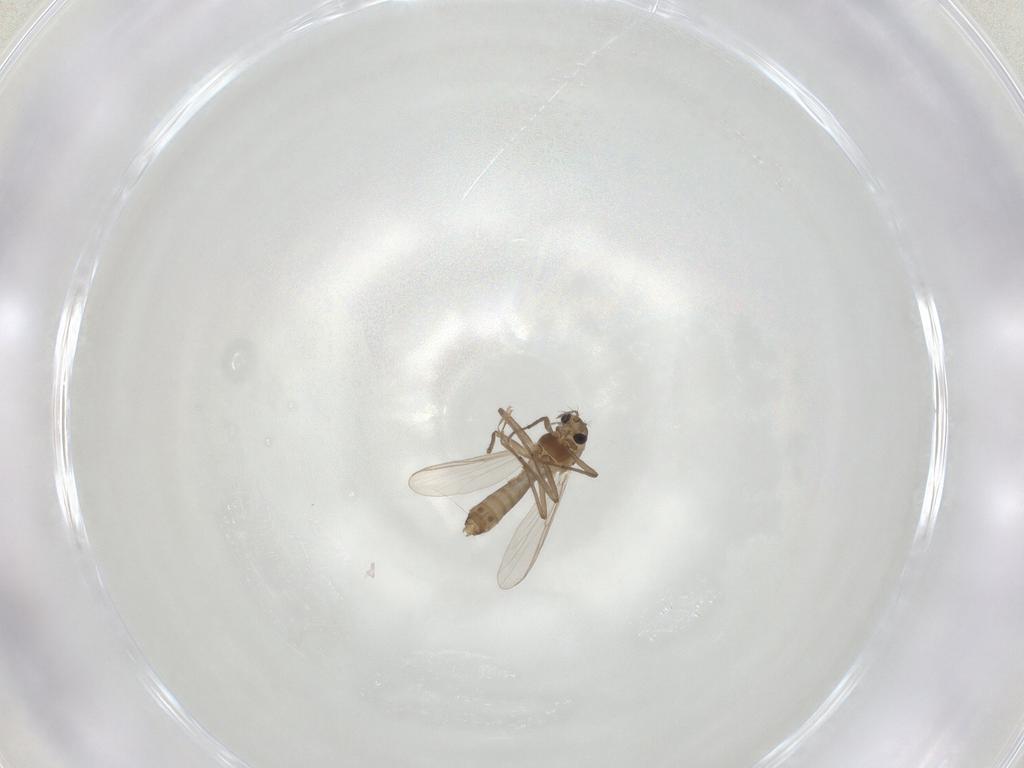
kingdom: Animalia
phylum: Arthropoda
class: Insecta
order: Diptera
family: Chironomidae
